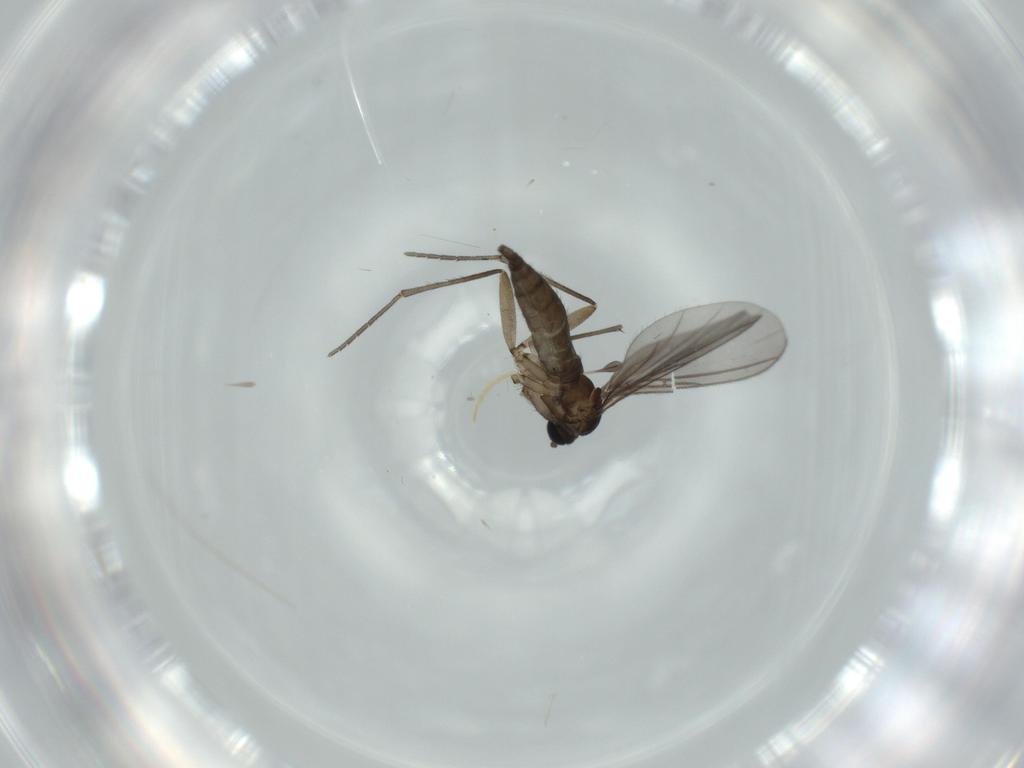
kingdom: Animalia
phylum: Arthropoda
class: Insecta
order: Diptera
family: Sciaridae
